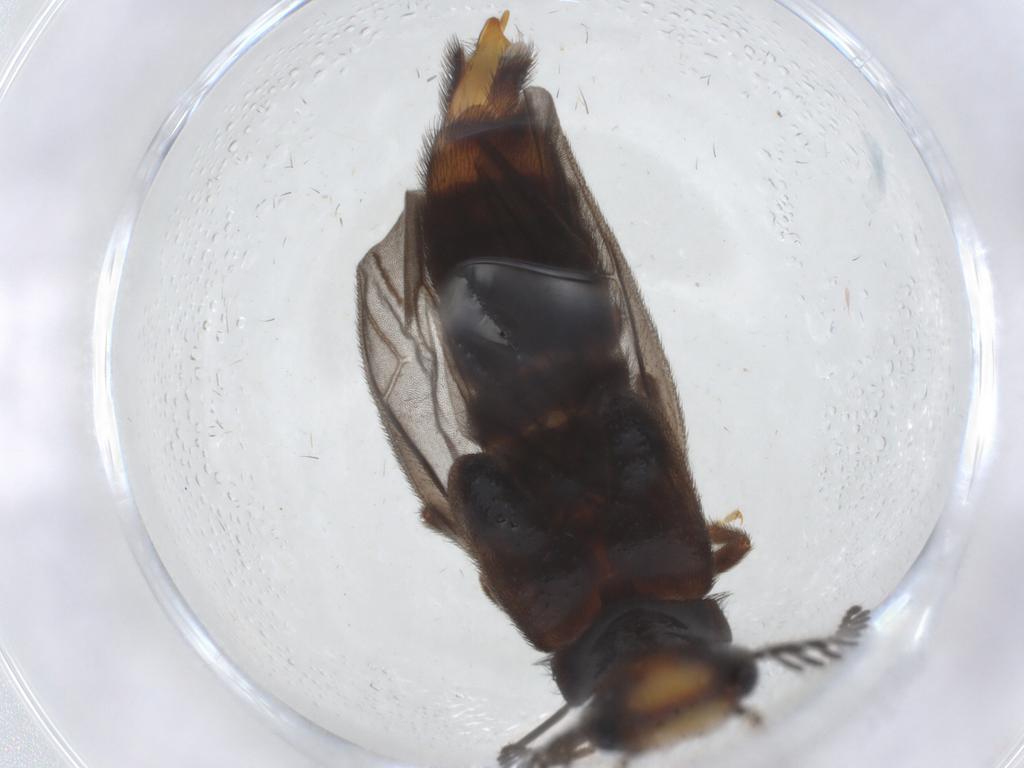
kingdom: Animalia
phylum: Arthropoda
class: Insecta
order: Coleoptera
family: Phengodidae
